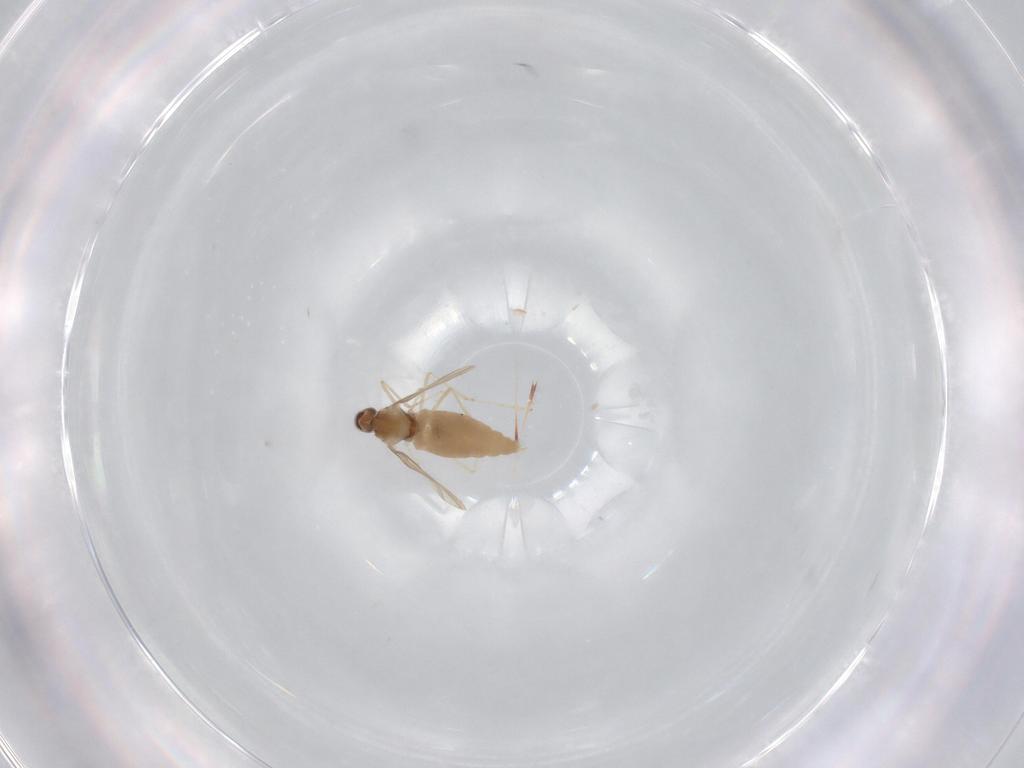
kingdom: Animalia
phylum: Arthropoda
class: Insecta
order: Diptera
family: Cecidomyiidae
